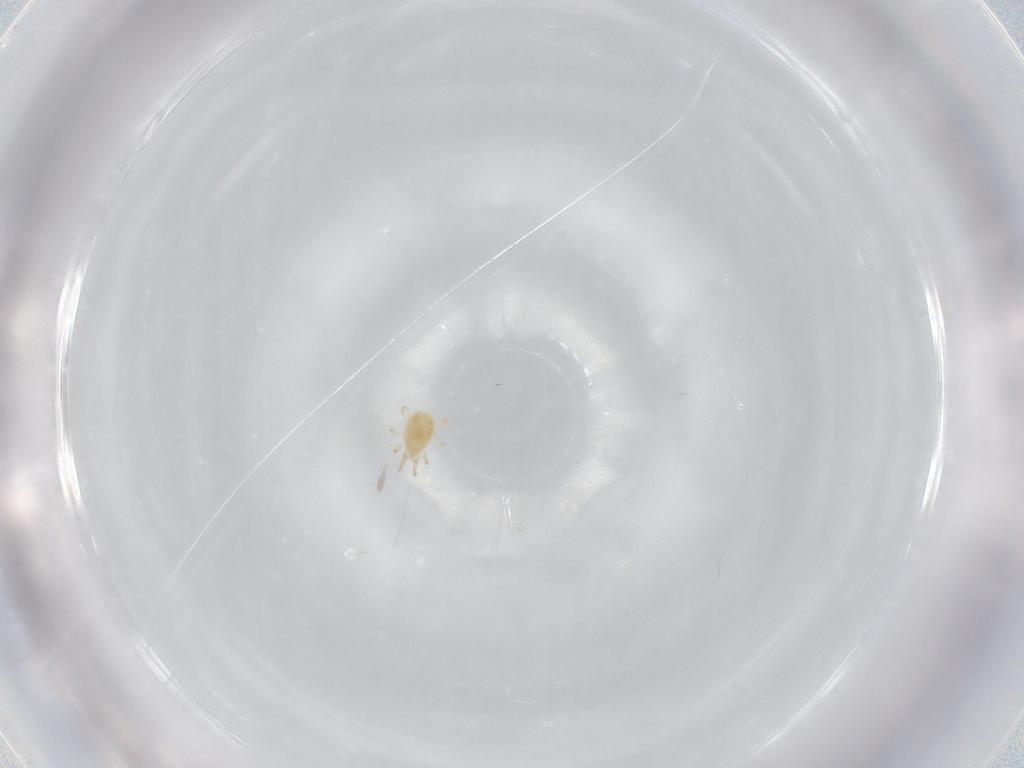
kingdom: Animalia
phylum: Arthropoda
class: Arachnida
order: Mesostigmata
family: Phytoseiidae
